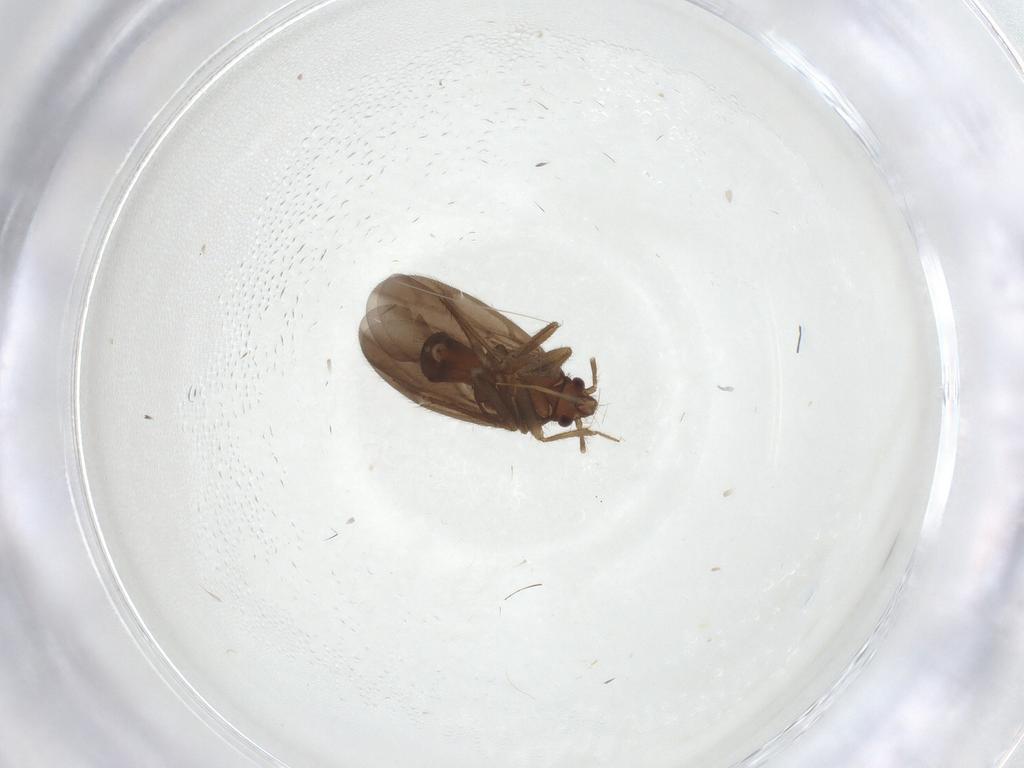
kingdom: Animalia
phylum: Arthropoda
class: Insecta
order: Hemiptera
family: Ceratocombidae
